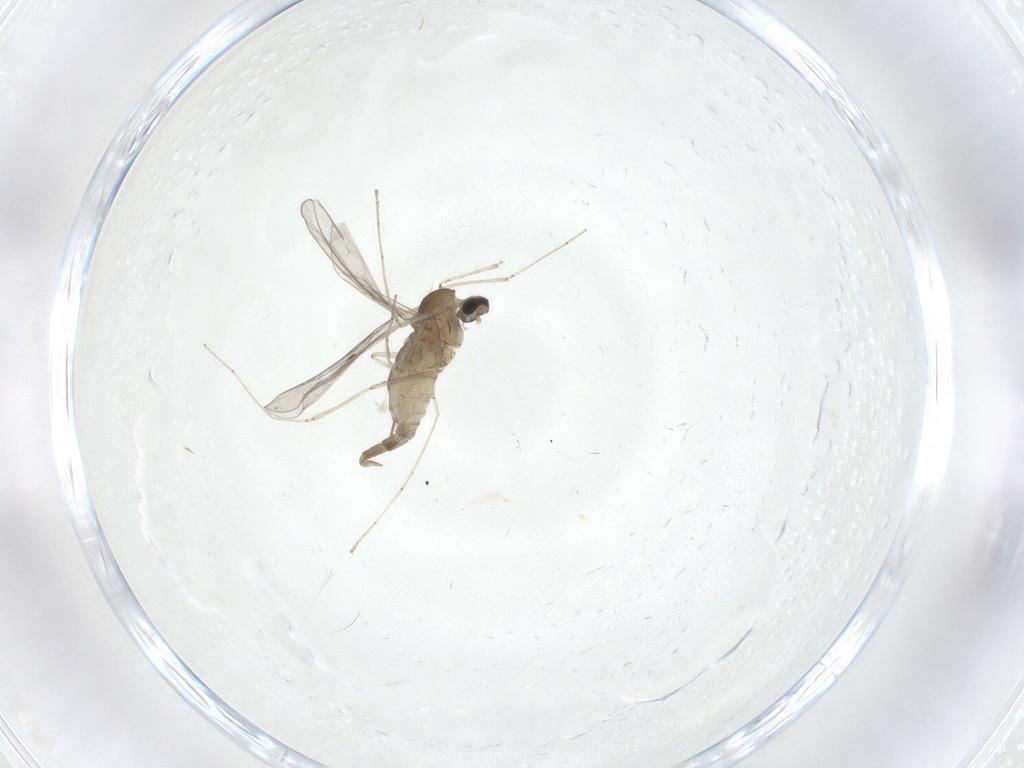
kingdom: Animalia
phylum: Arthropoda
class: Insecta
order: Diptera
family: Cecidomyiidae
